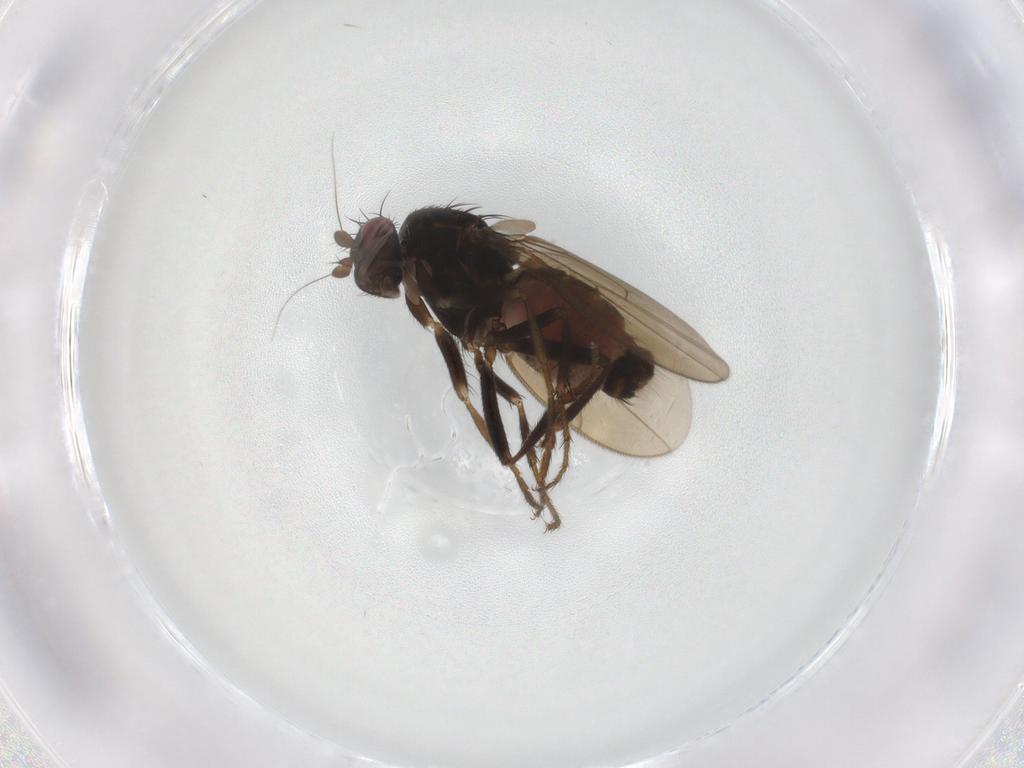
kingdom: Animalia
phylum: Arthropoda
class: Insecta
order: Diptera
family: Sphaeroceridae
